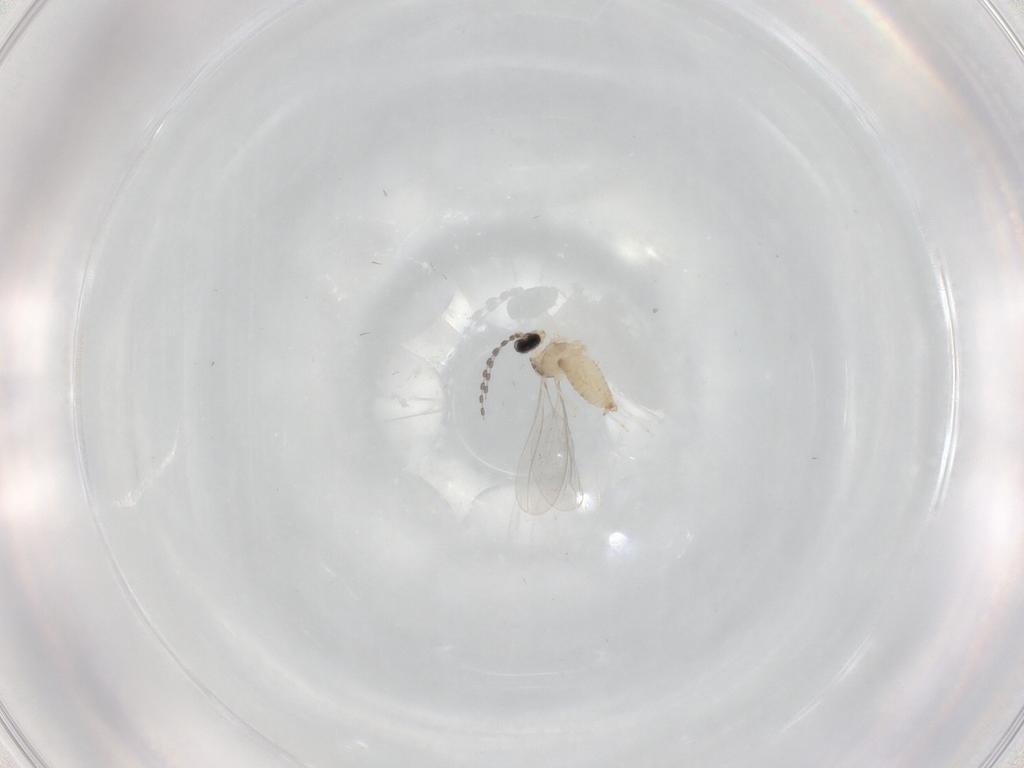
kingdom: Animalia
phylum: Arthropoda
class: Insecta
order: Diptera
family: Cecidomyiidae
